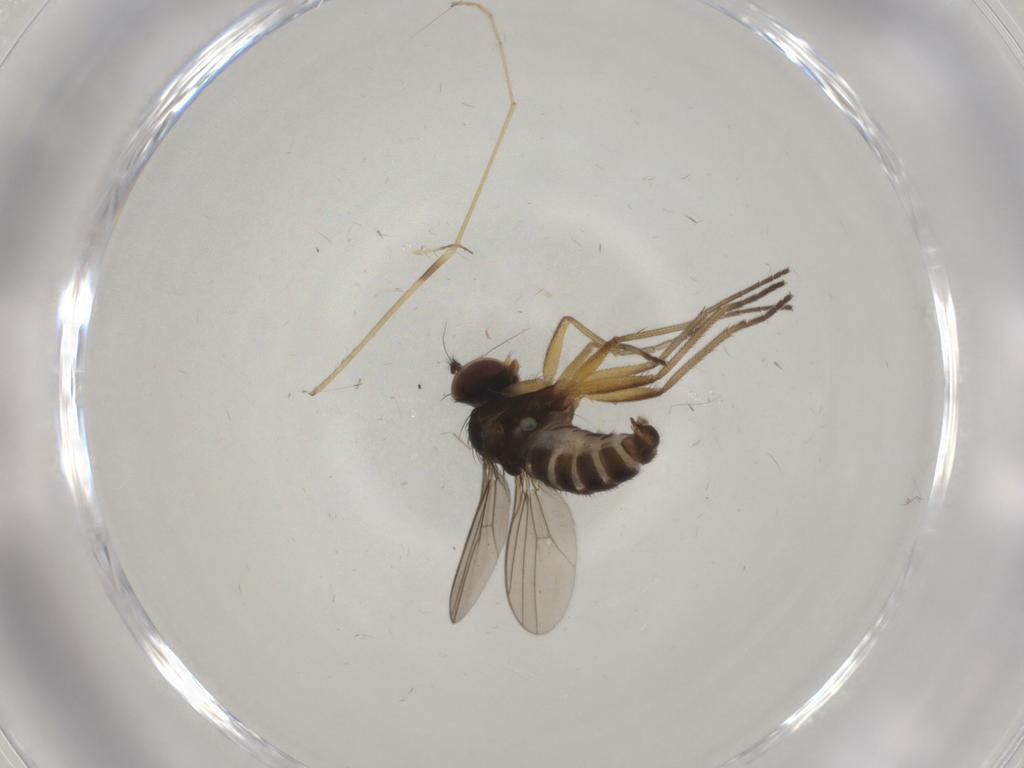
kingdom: Animalia
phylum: Arthropoda
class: Insecta
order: Diptera
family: Dolichopodidae
